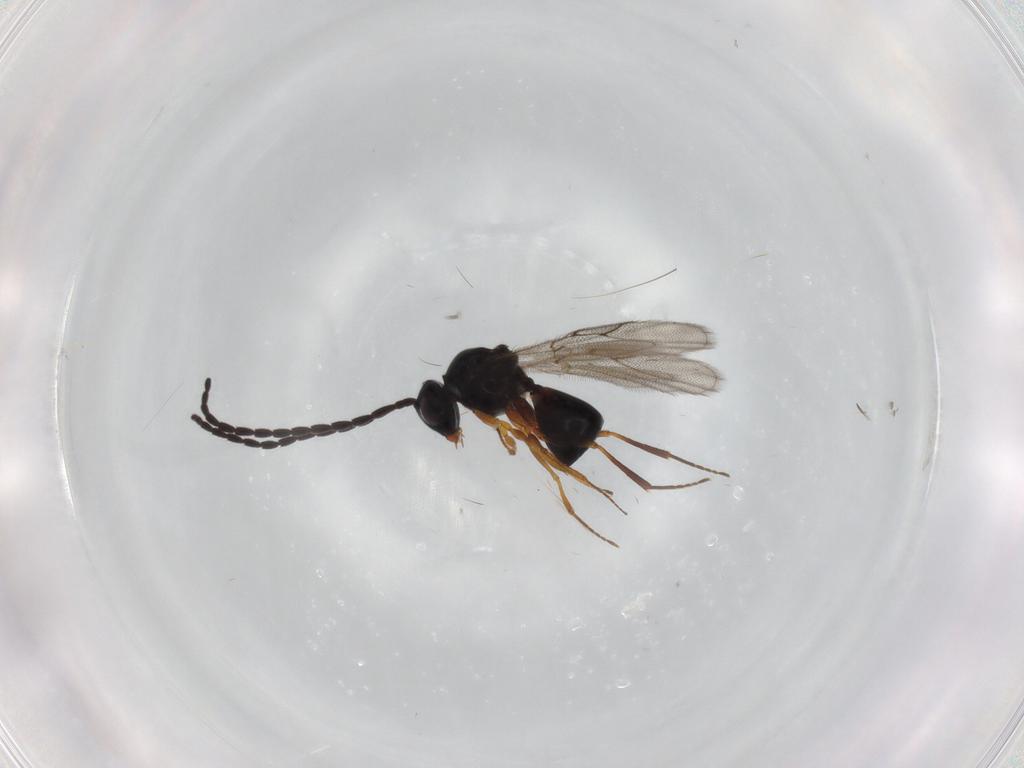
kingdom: Animalia
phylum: Arthropoda
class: Insecta
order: Hymenoptera
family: Figitidae
